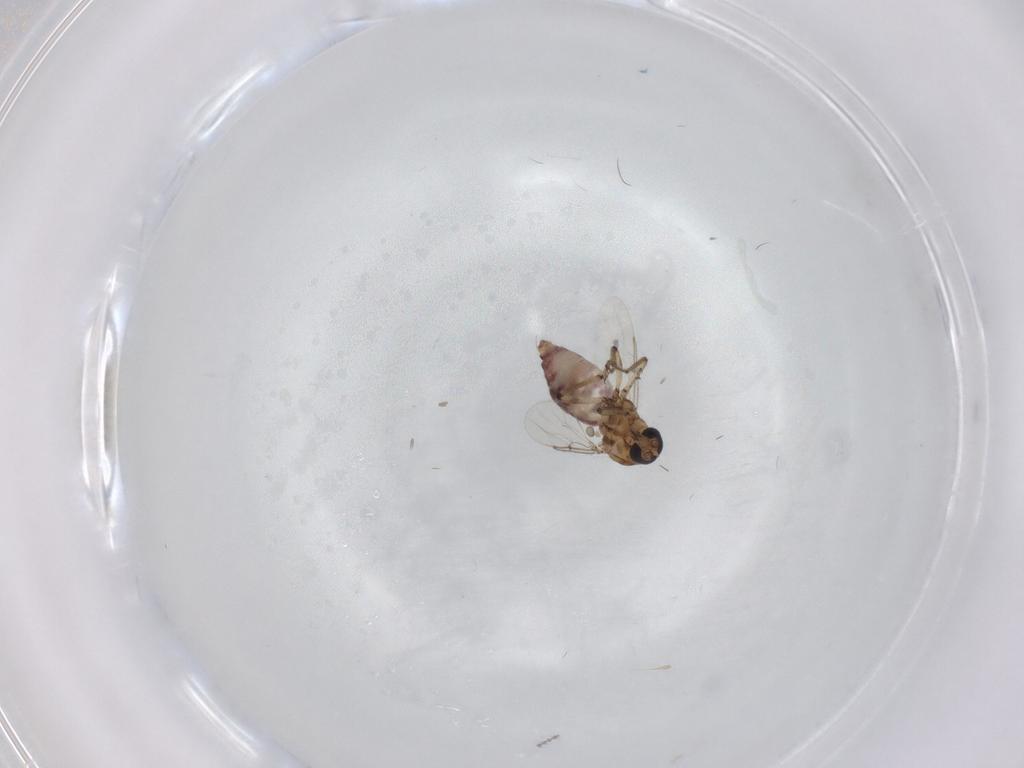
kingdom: Animalia
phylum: Arthropoda
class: Insecta
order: Diptera
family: Ceratopogonidae
